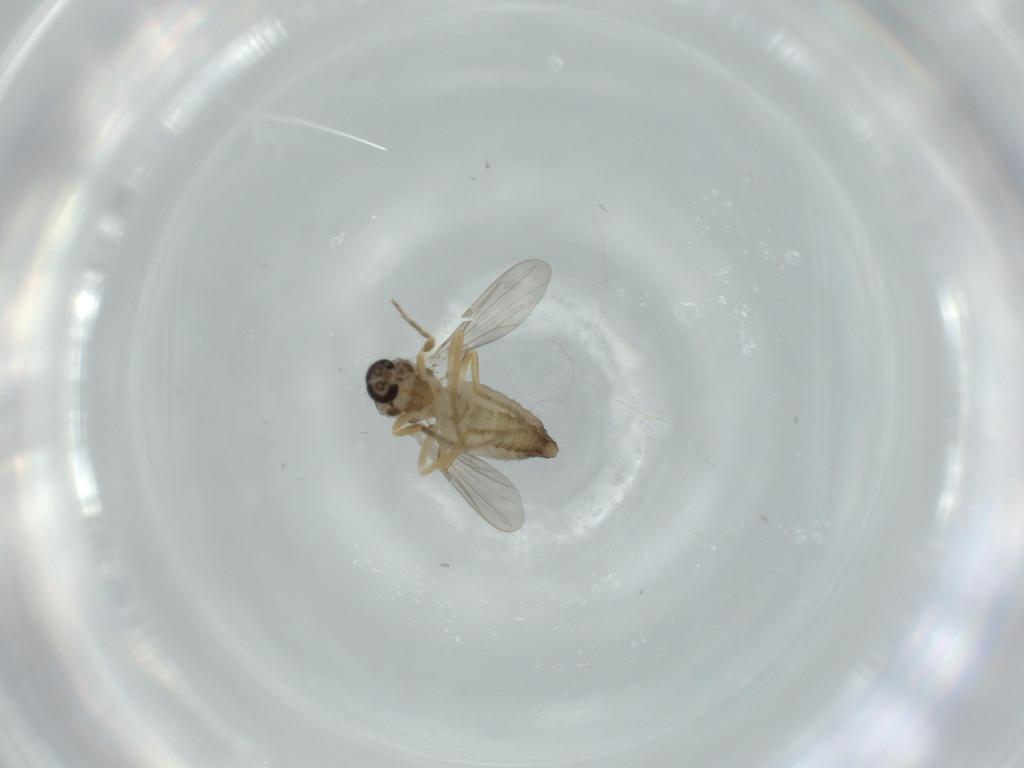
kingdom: Animalia
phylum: Arthropoda
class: Insecta
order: Diptera
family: Ceratopogonidae
